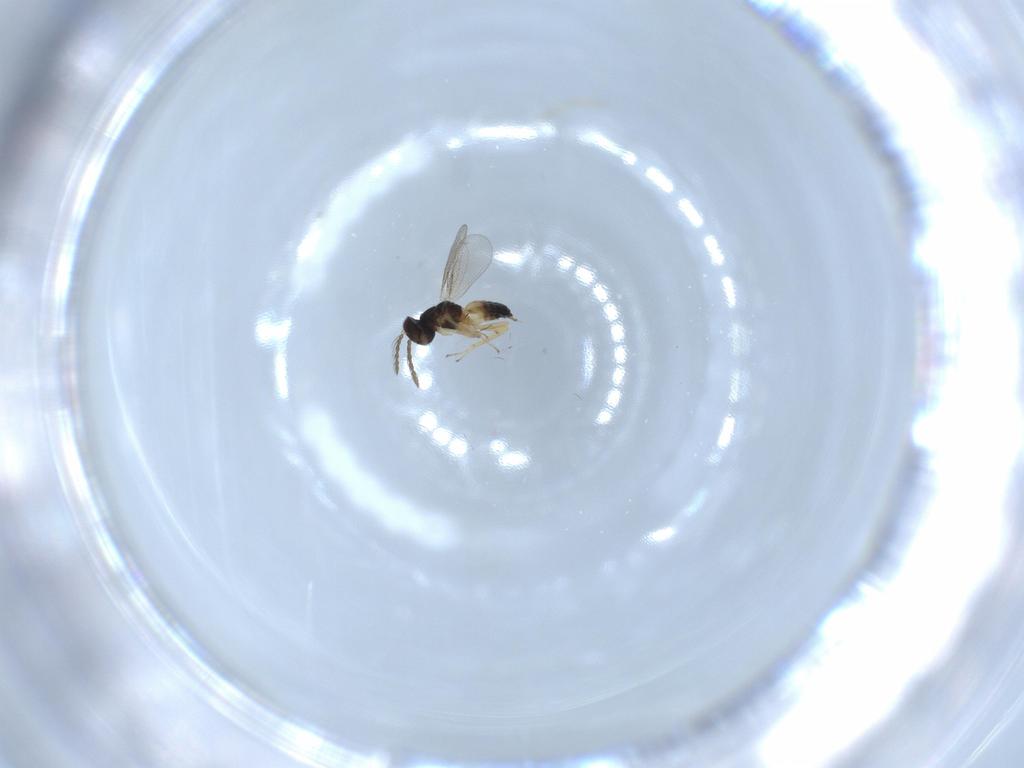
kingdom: Animalia
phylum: Arthropoda
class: Insecta
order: Hymenoptera
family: Eulophidae
